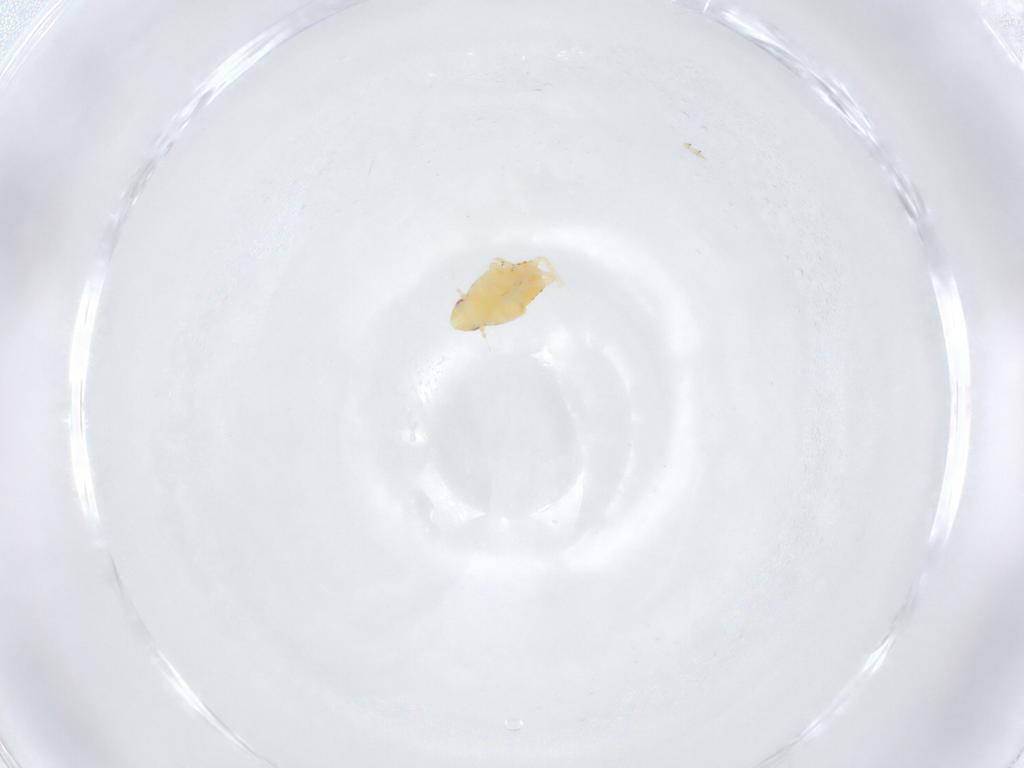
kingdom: Animalia
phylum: Arthropoda
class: Insecta
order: Hemiptera
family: Flatidae
